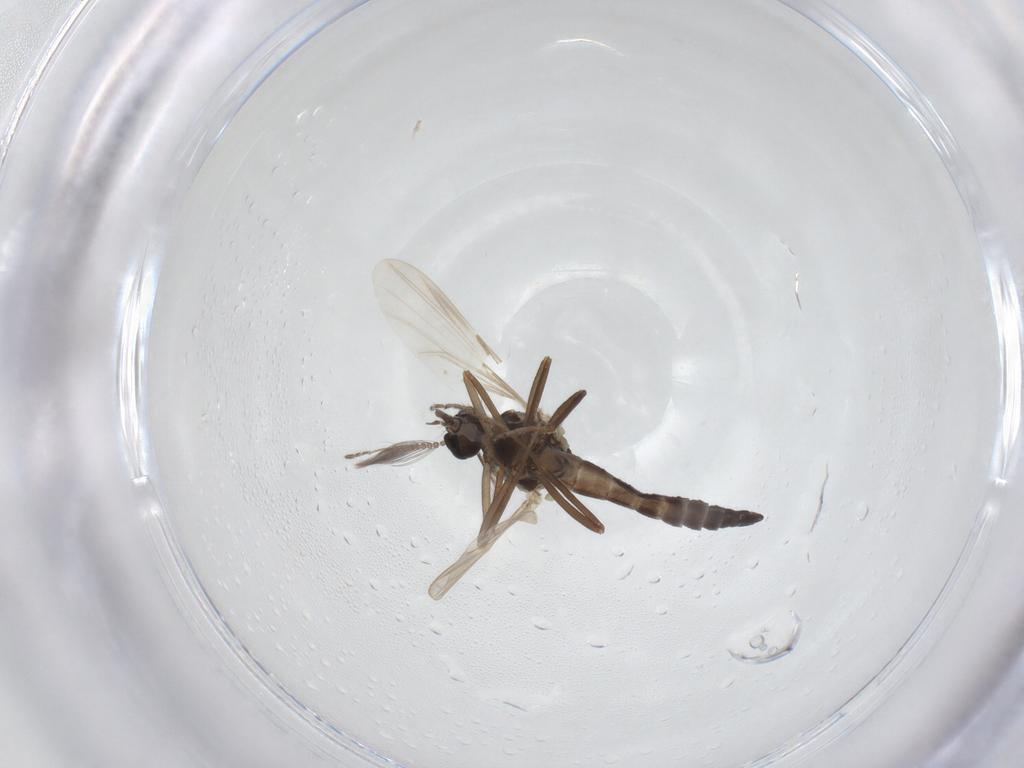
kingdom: Animalia
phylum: Arthropoda
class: Insecta
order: Diptera
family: Ceratopogonidae
